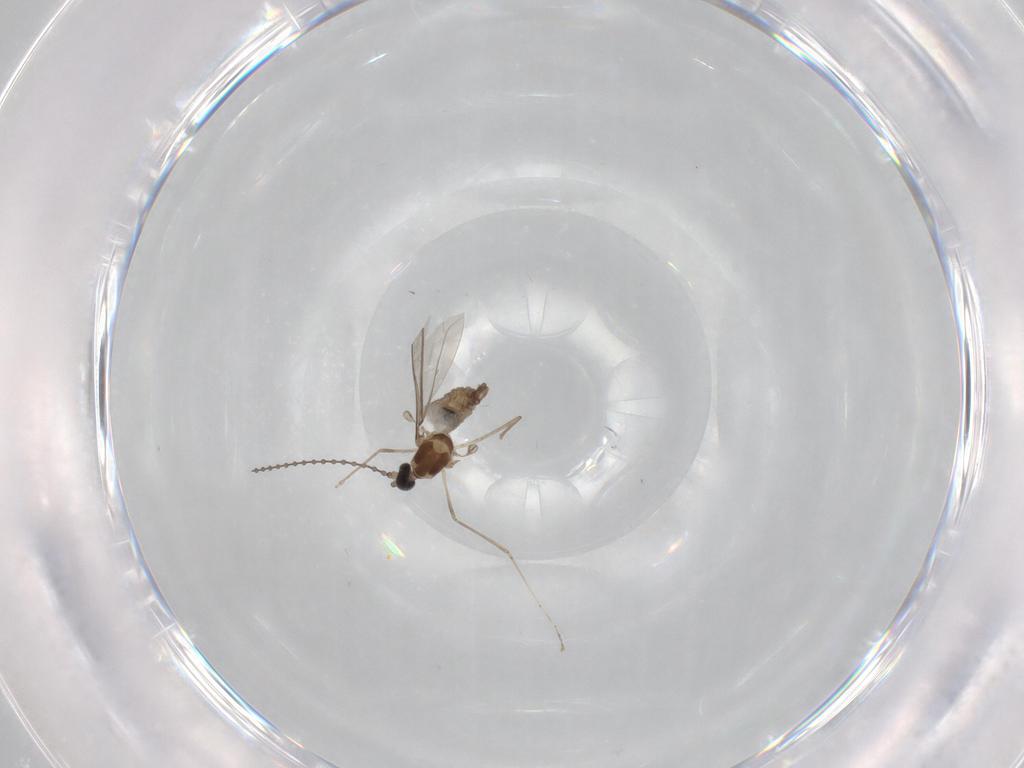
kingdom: Animalia
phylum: Arthropoda
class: Insecta
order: Diptera
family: Cecidomyiidae
